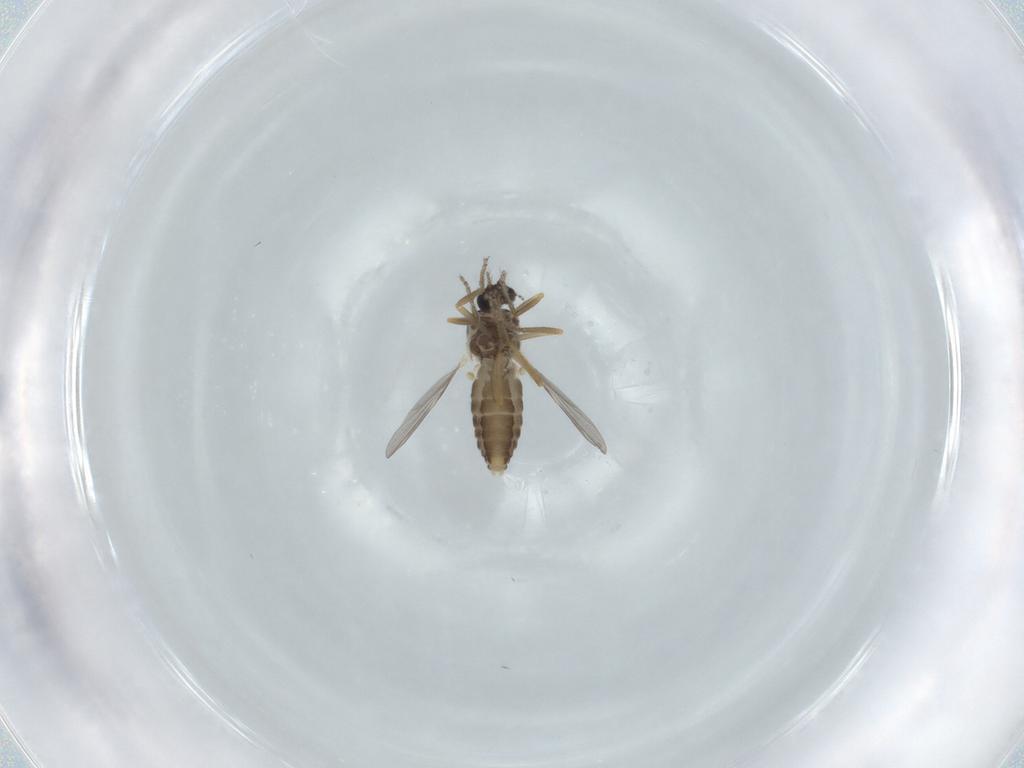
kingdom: Animalia
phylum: Arthropoda
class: Insecta
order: Diptera
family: Ceratopogonidae
